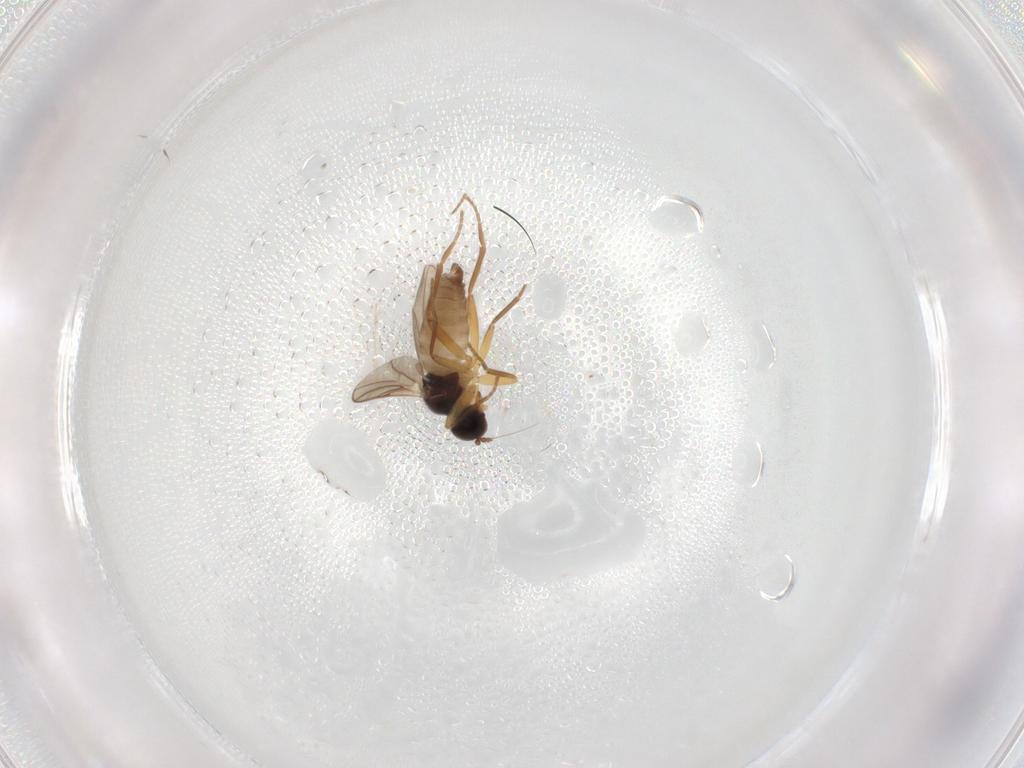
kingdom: Animalia
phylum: Arthropoda
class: Insecta
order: Diptera
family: Hybotidae
